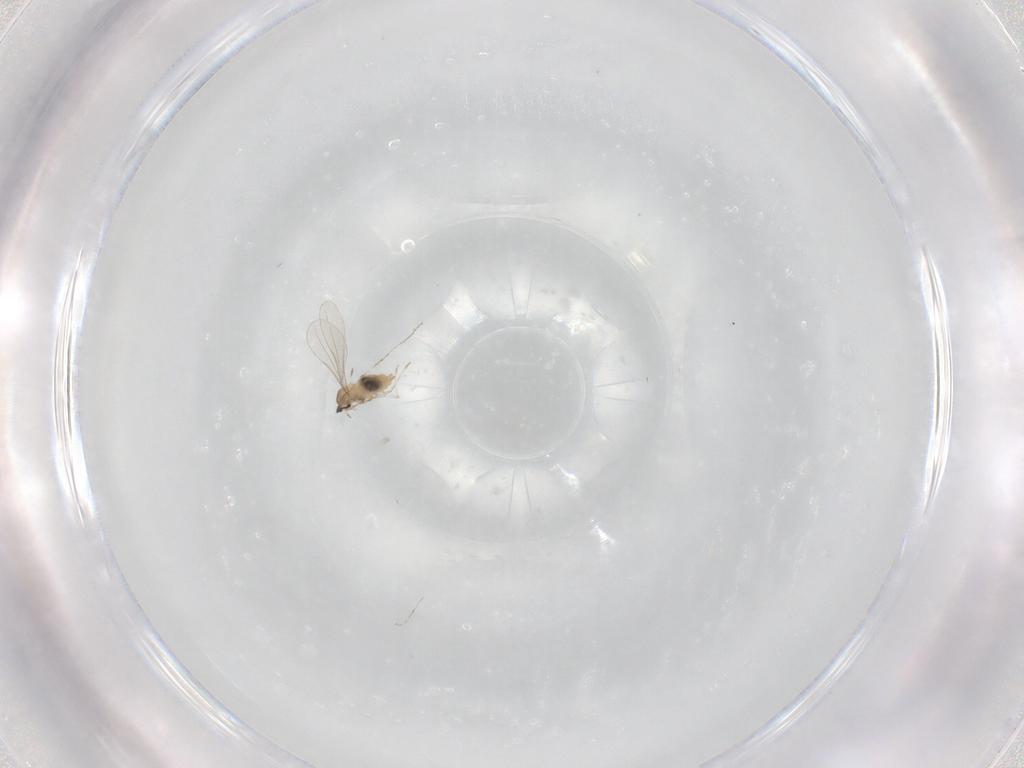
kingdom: Animalia
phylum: Arthropoda
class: Insecta
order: Diptera
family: Cecidomyiidae
